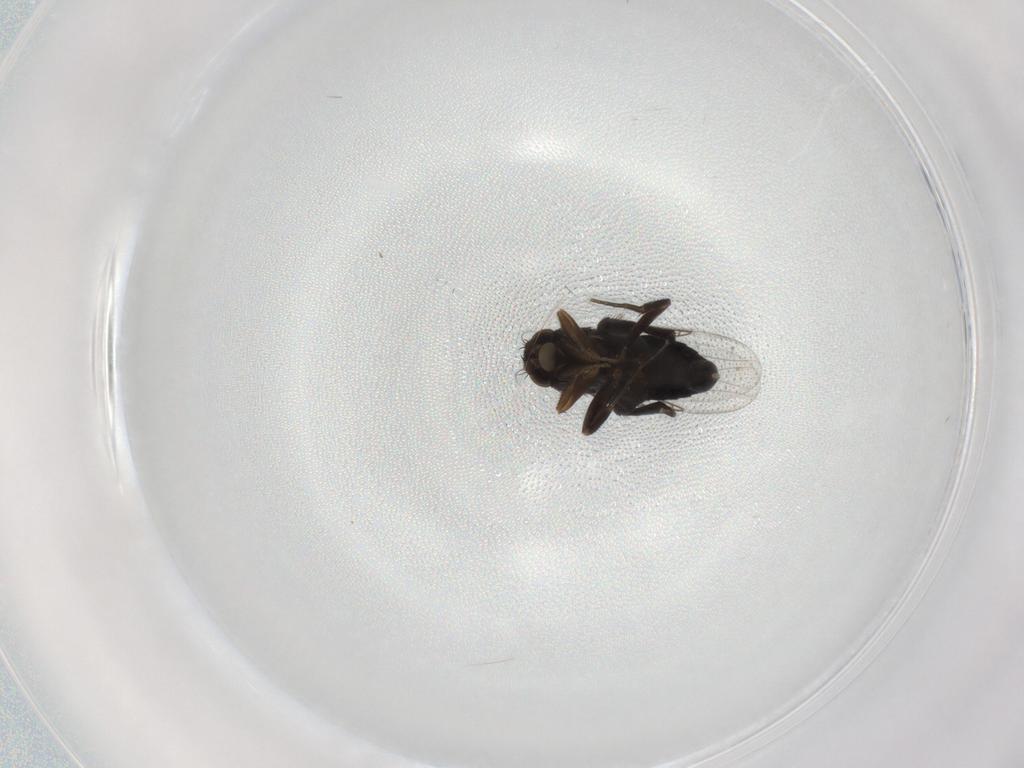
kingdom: Animalia
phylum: Arthropoda
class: Insecta
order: Diptera
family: Phoridae
